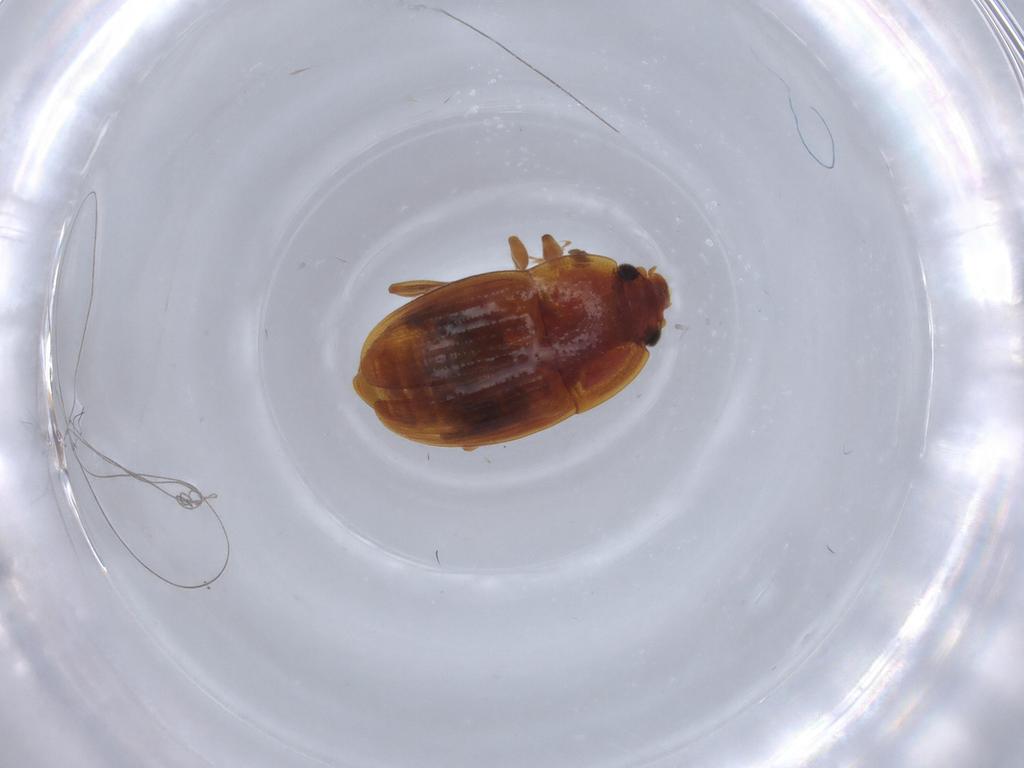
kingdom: Animalia
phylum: Arthropoda
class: Insecta
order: Coleoptera
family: Nitidulidae
